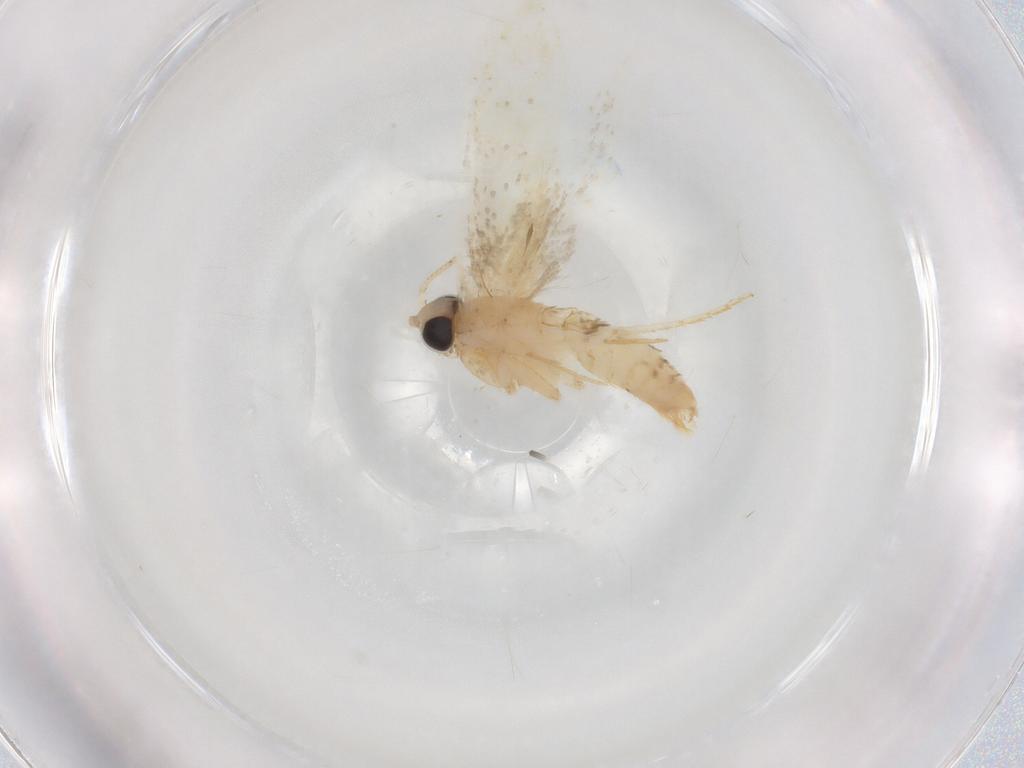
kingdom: Animalia
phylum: Arthropoda
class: Insecta
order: Lepidoptera
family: Tineidae
